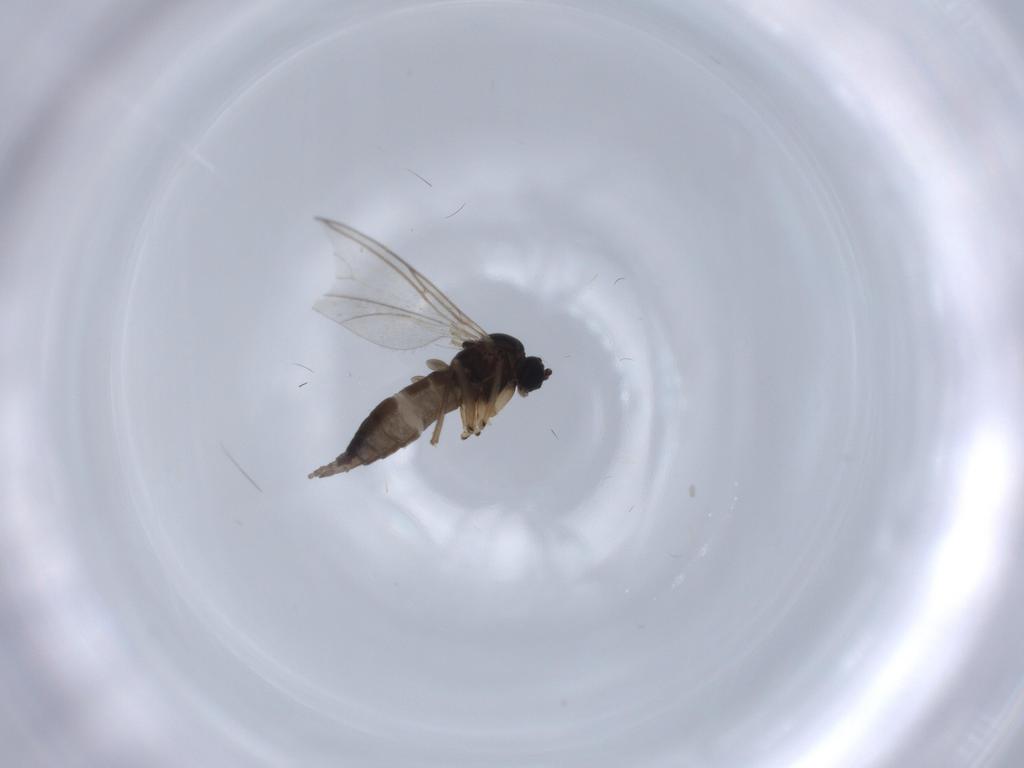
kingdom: Animalia
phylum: Arthropoda
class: Insecta
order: Diptera
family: Sciaridae
